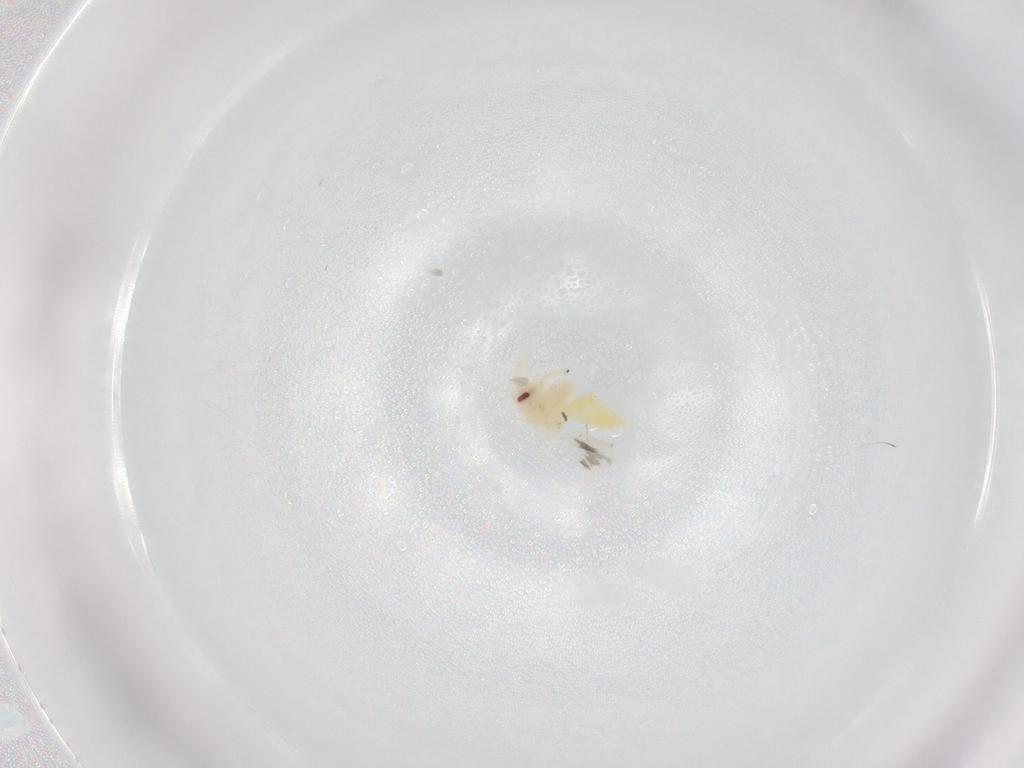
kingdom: Animalia
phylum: Arthropoda
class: Insecta
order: Hemiptera
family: Aleyrodidae
